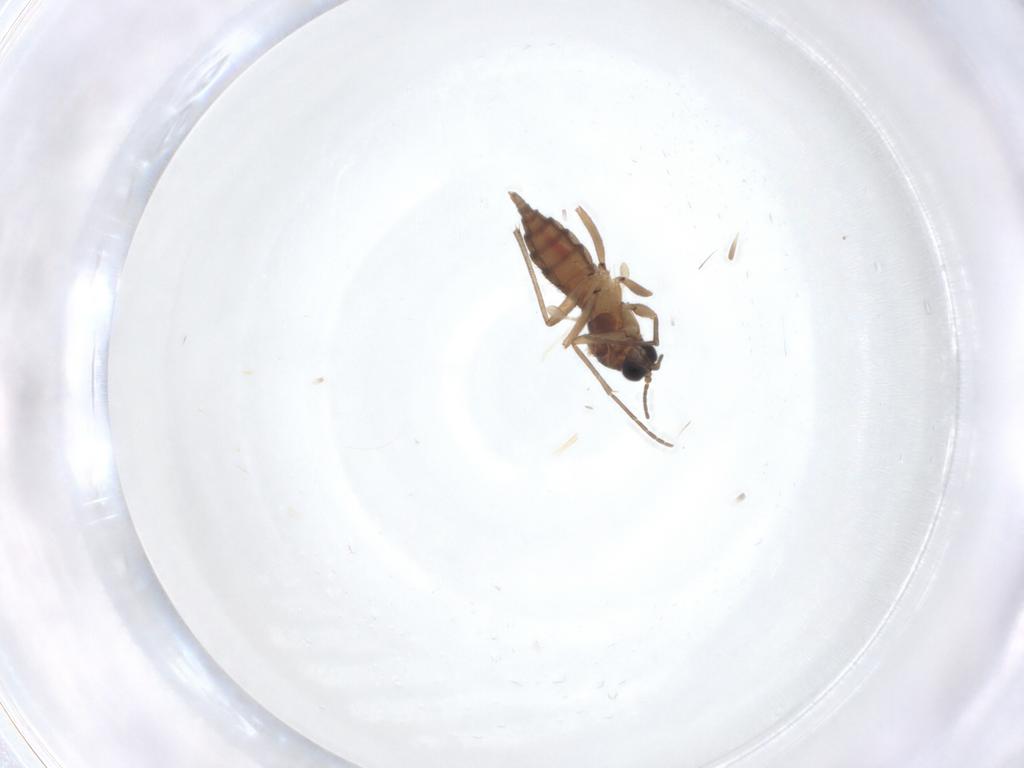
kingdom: Animalia
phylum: Arthropoda
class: Insecta
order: Diptera
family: Sciaridae
